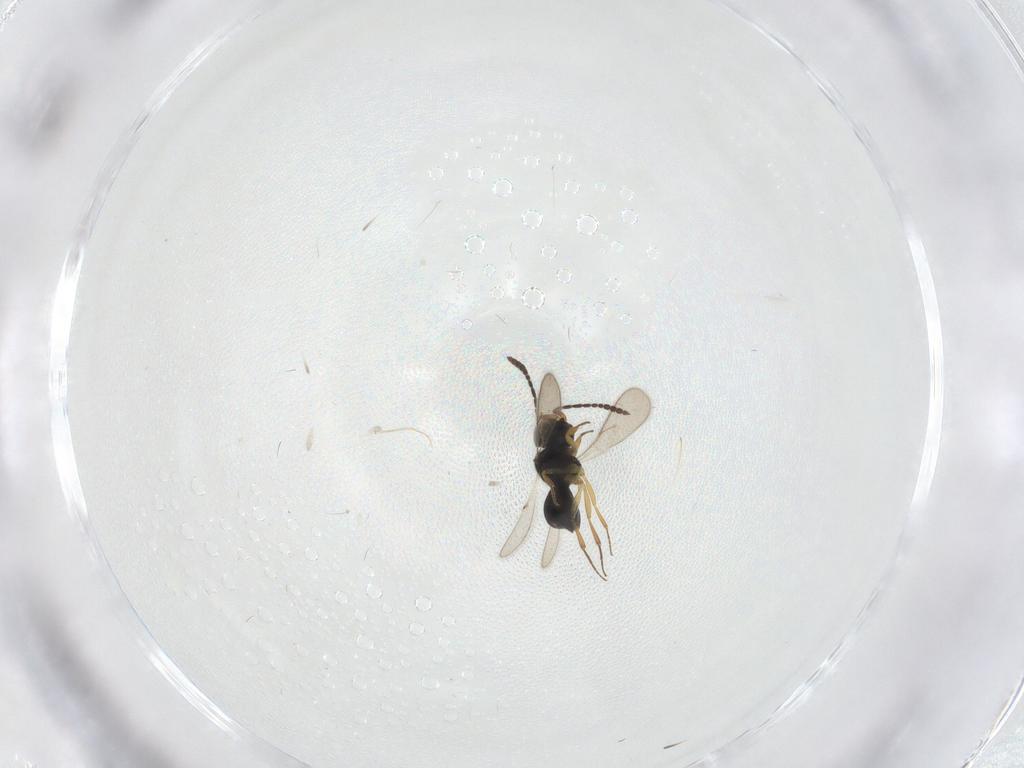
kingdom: Animalia
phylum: Arthropoda
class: Insecta
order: Hymenoptera
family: Scelionidae
